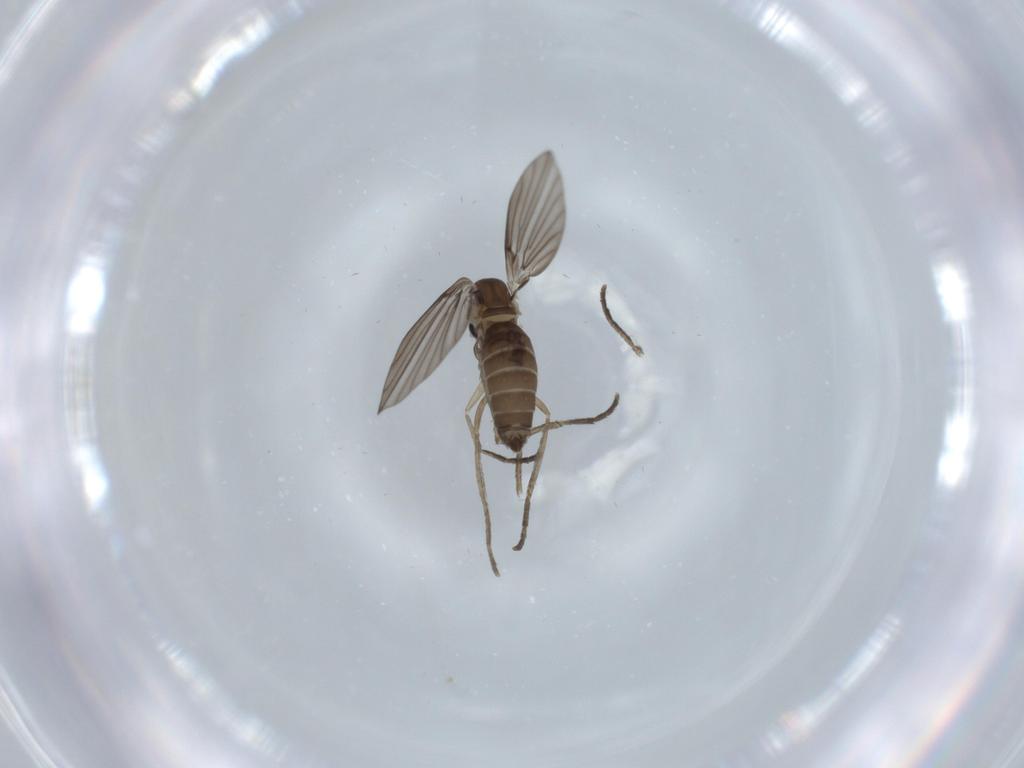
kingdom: Animalia
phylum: Arthropoda
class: Insecta
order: Diptera
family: Psychodidae
